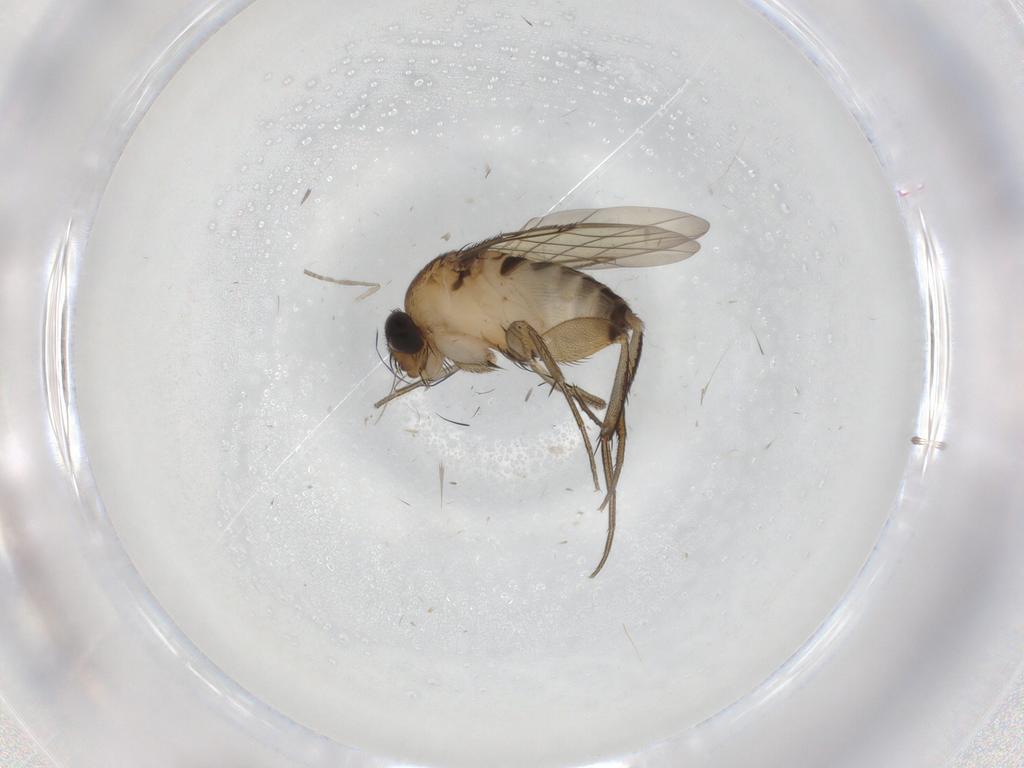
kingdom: Animalia
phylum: Arthropoda
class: Insecta
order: Diptera
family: Phoridae
